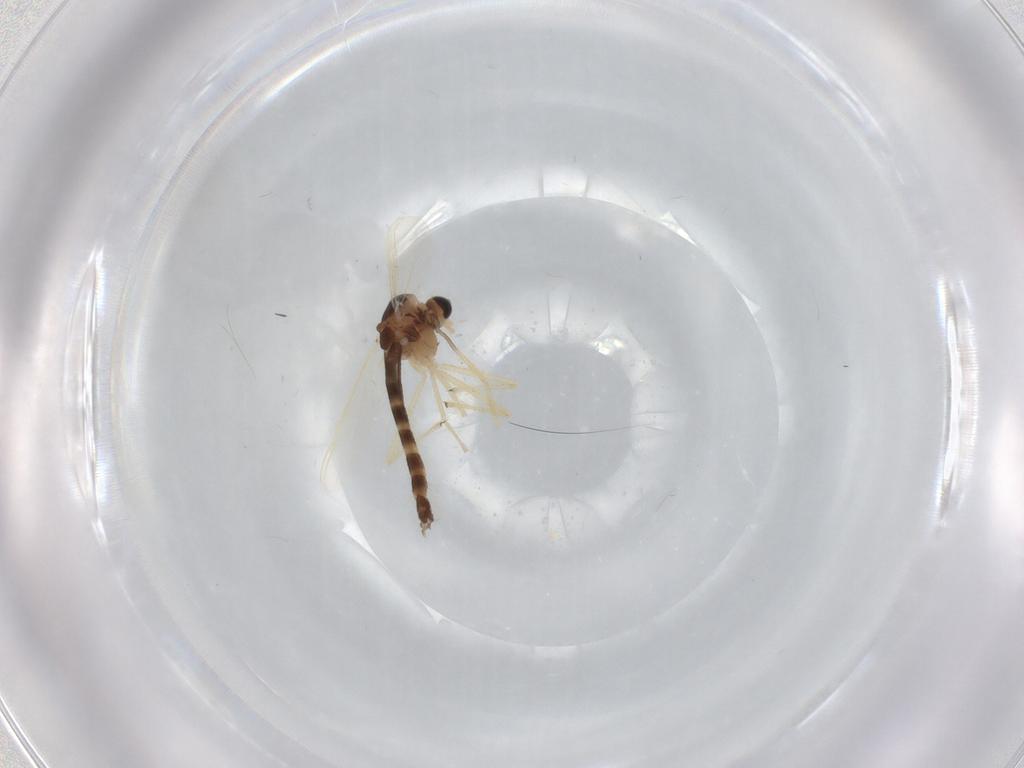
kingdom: Animalia
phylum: Arthropoda
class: Insecta
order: Diptera
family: Chironomidae
